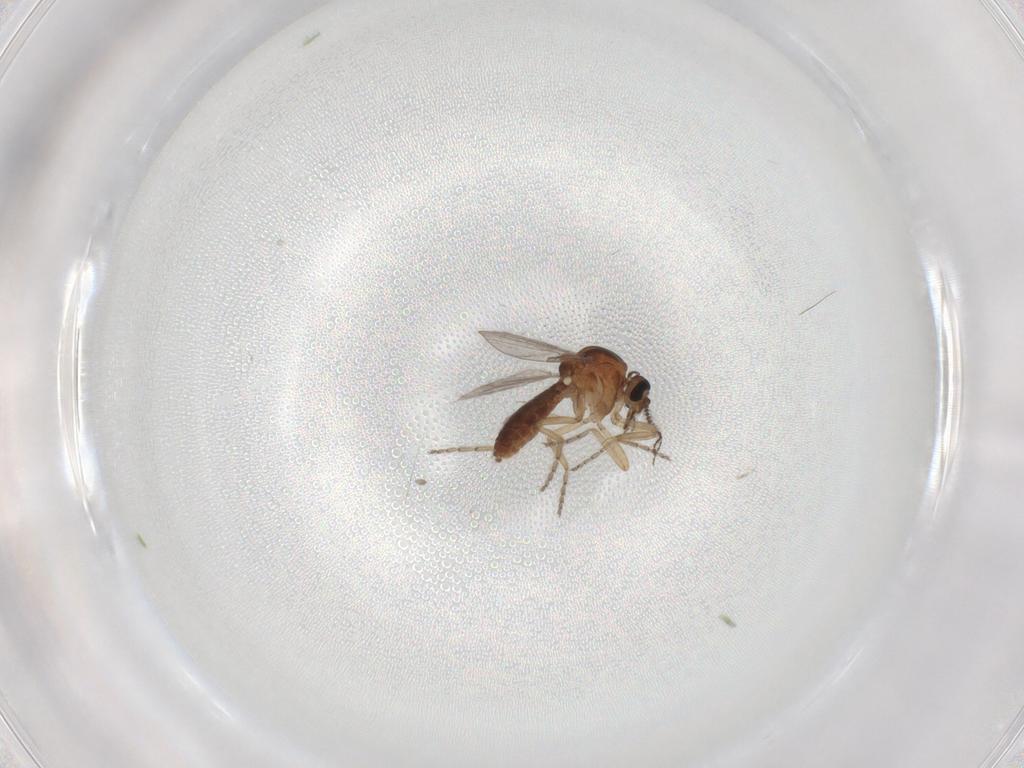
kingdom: Animalia
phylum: Arthropoda
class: Insecta
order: Diptera
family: Ceratopogonidae
